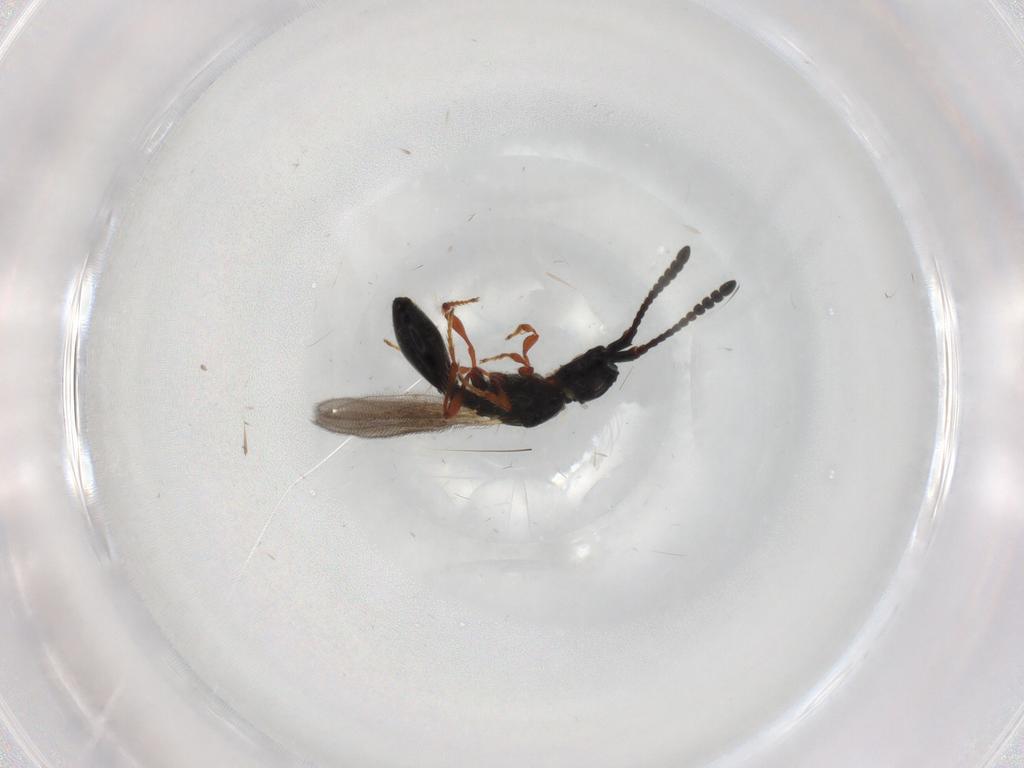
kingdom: Animalia
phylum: Arthropoda
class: Insecta
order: Hymenoptera
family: Diapriidae
